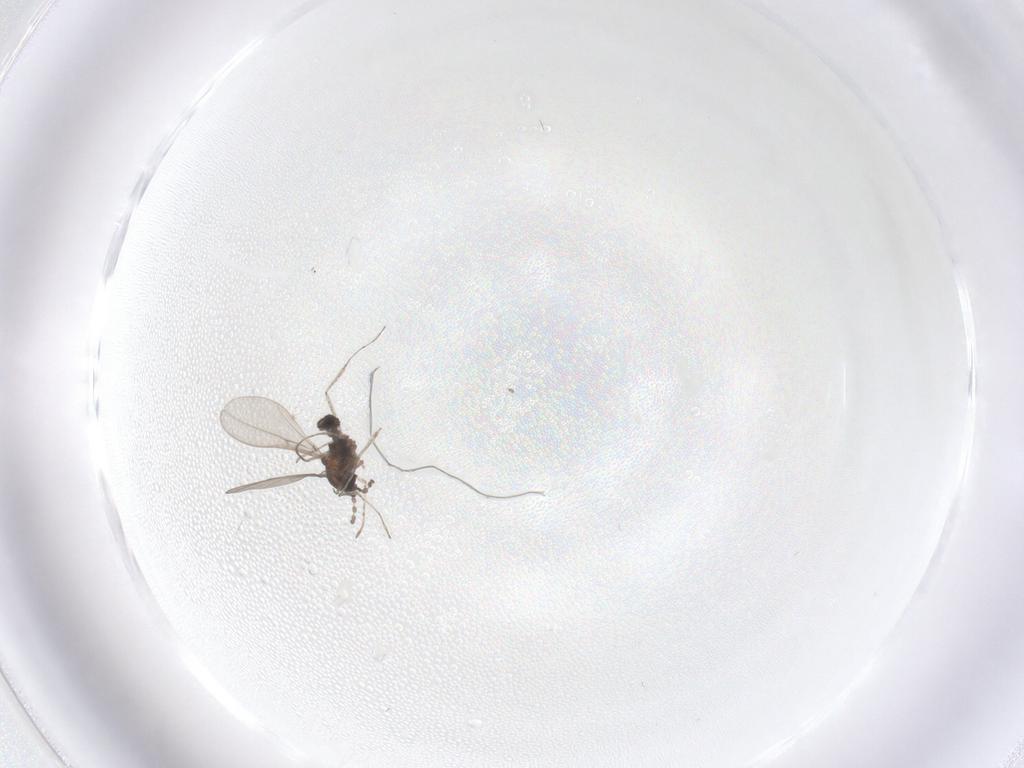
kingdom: Animalia
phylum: Arthropoda
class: Insecta
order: Diptera
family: Cecidomyiidae
